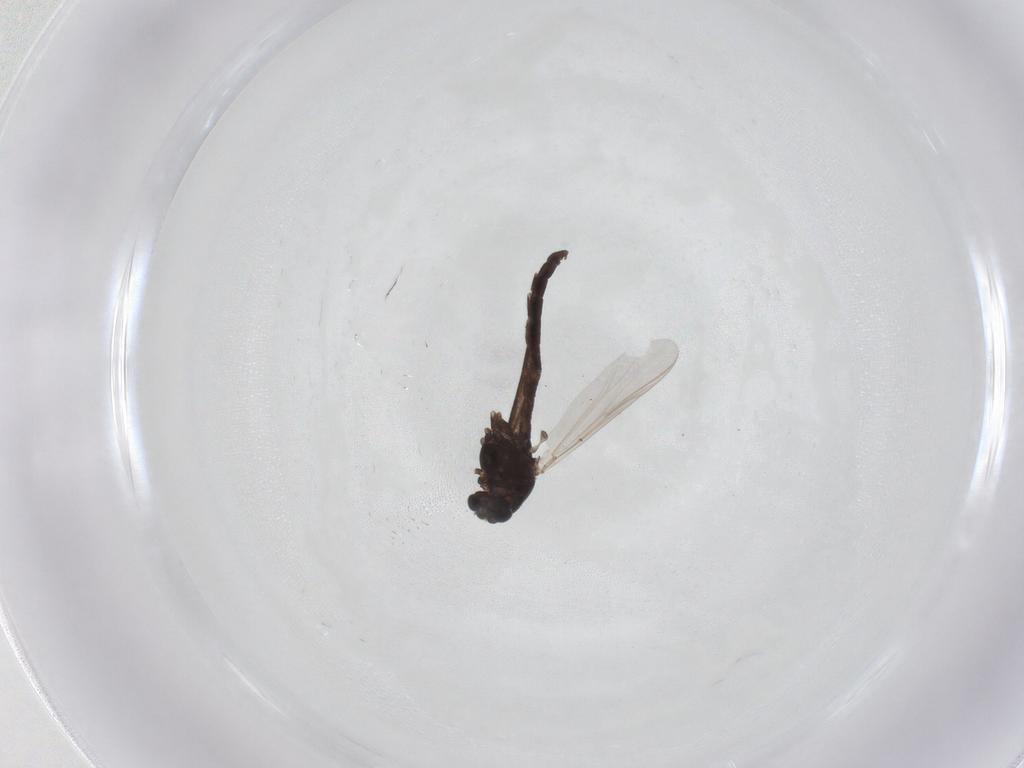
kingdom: Animalia
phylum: Arthropoda
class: Insecta
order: Diptera
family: Chironomidae
